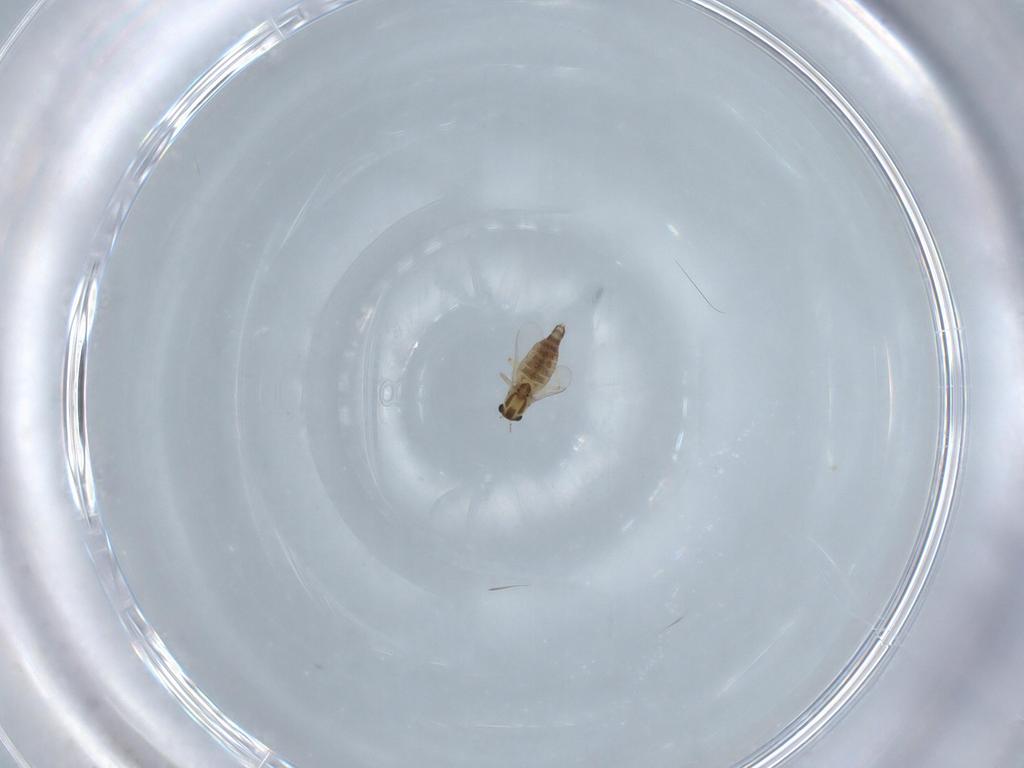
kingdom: Animalia
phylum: Arthropoda
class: Insecta
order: Diptera
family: Chironomidae
